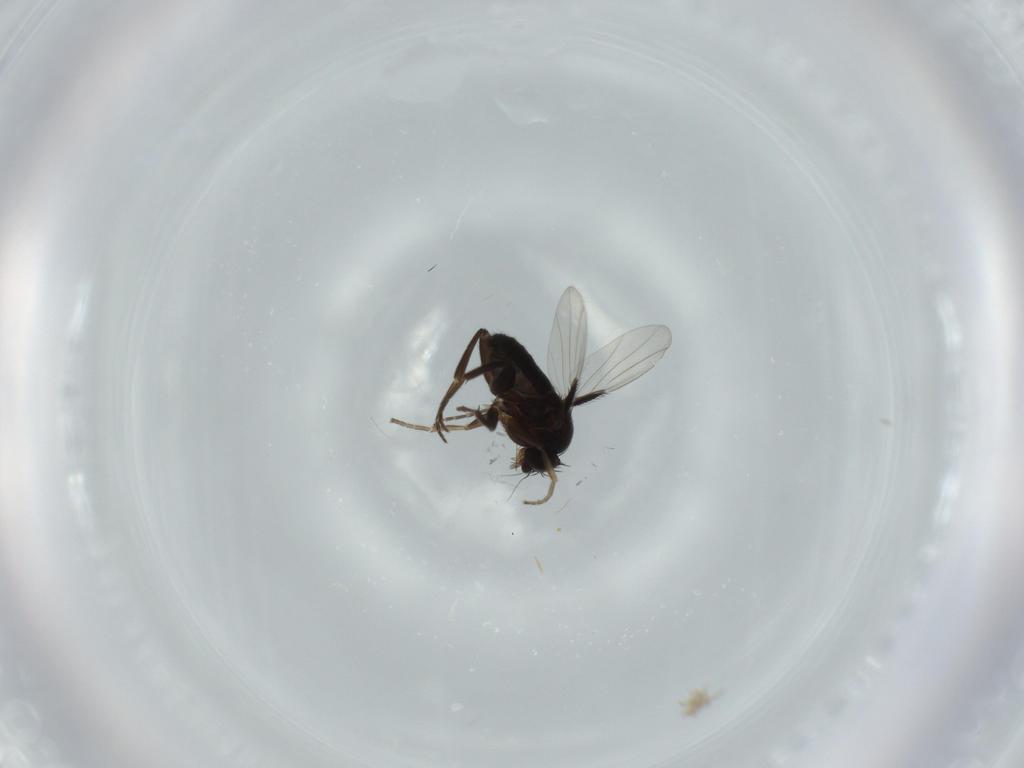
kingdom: Animalia
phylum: Arthropoda
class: Insecta
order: Diptera
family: Phoridae
